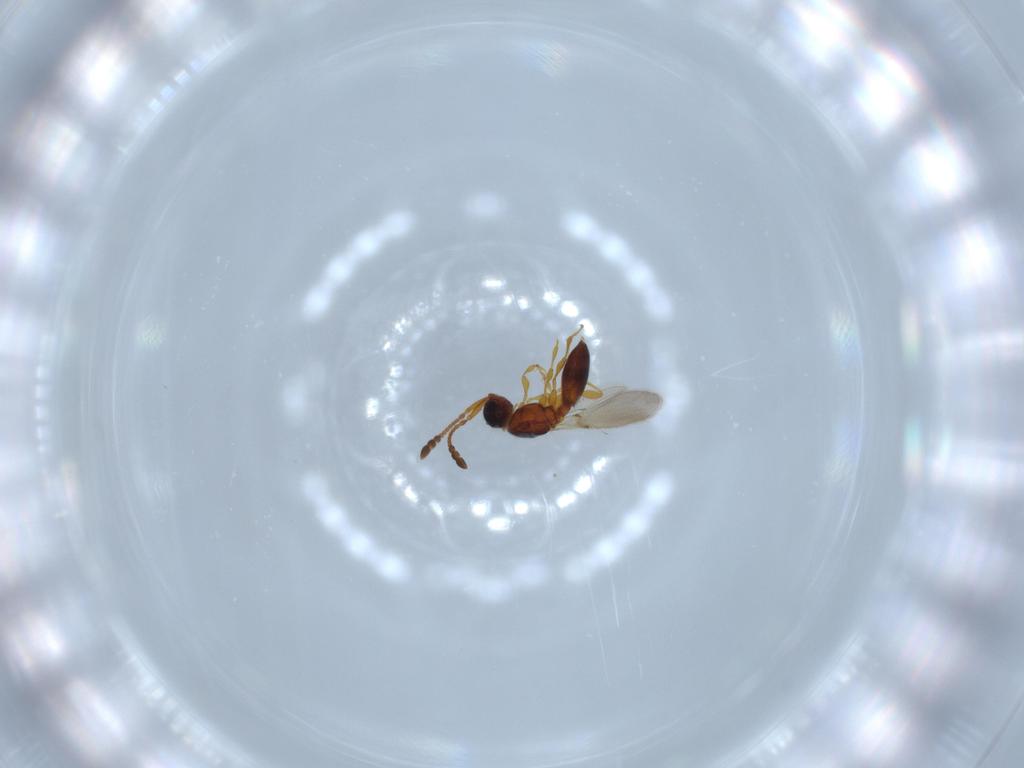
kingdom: Animalia
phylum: Arthropoda
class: Insecta
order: Hymenoptera
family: Diapriidae
